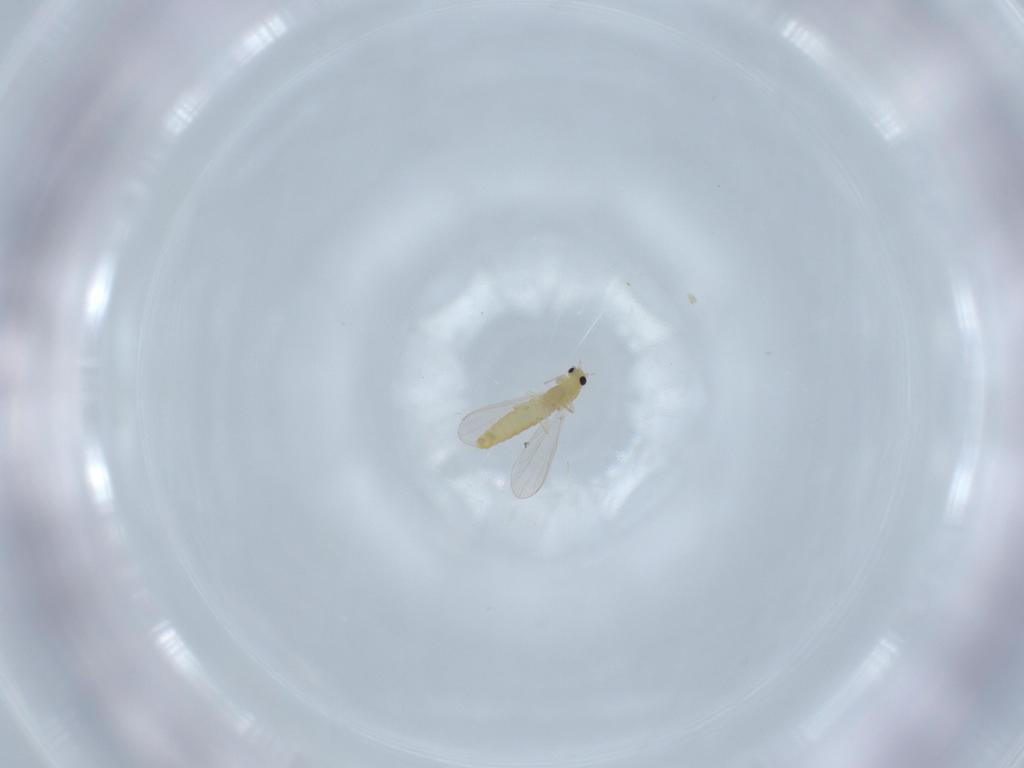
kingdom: Animalia
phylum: Arthropoda
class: Insecta
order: Diptera
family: Chironomidae
